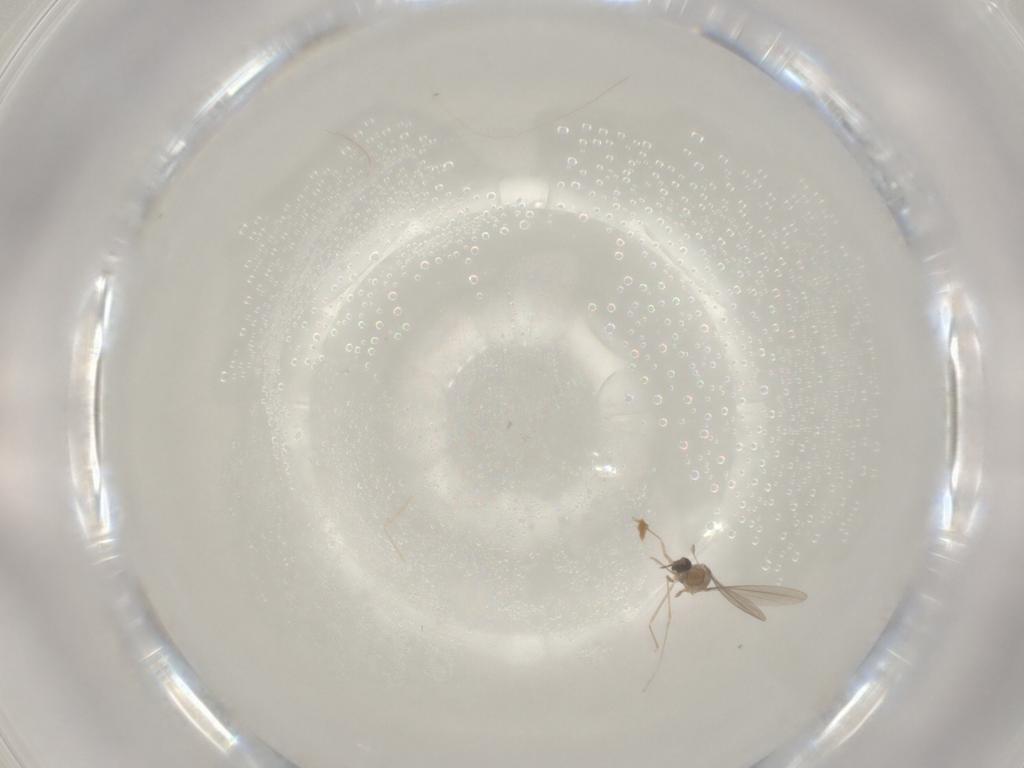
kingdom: Animalia
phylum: Arthropoda
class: Insecta
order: Diptera
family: Cecidomyiidae
